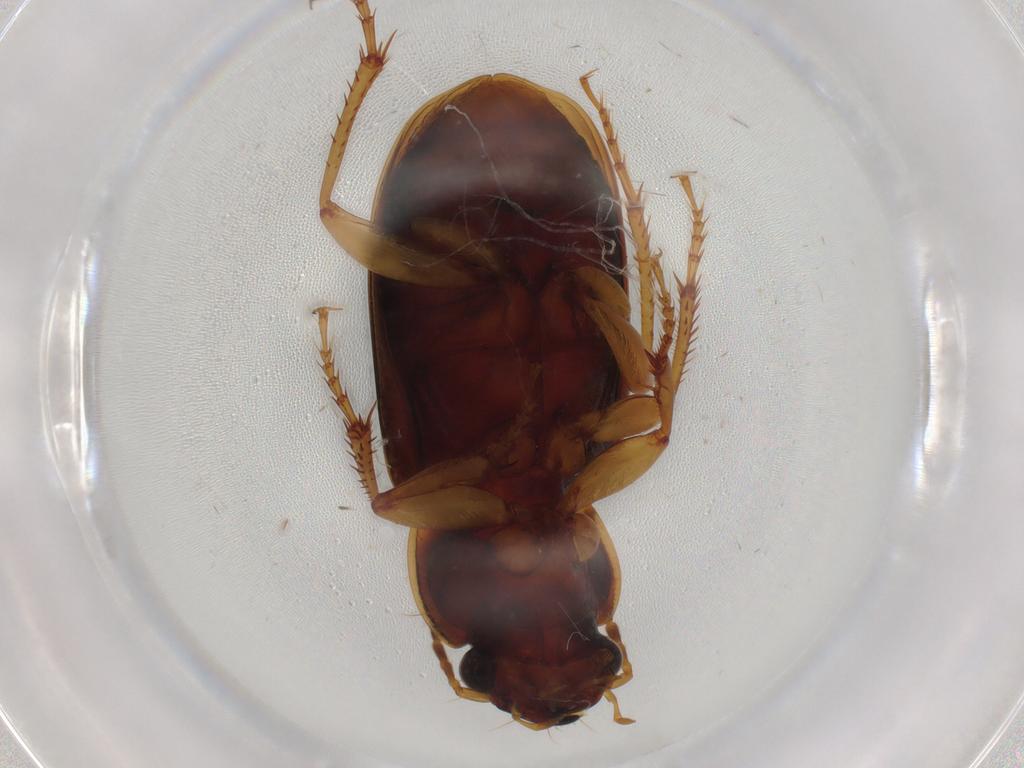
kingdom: Animalia
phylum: Arthropoda
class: Insecta
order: Coleoptera
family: Carabidae
